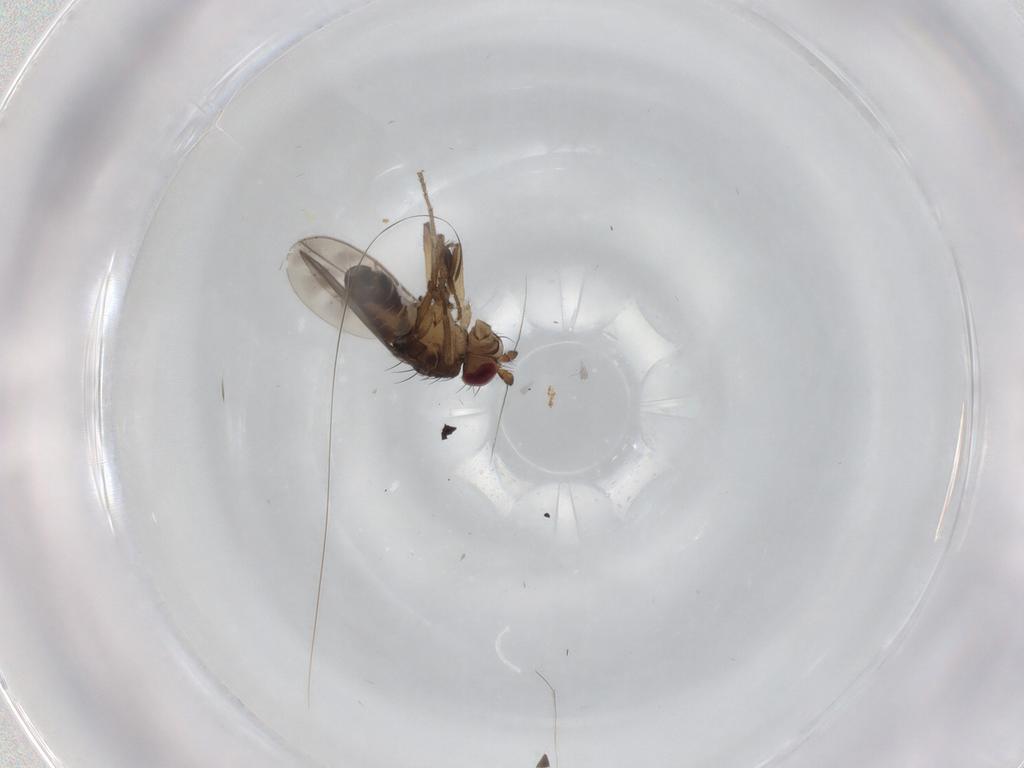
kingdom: Animalia
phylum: Arthropoda
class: Insecta
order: Diptera
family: Sphaeroceridae
